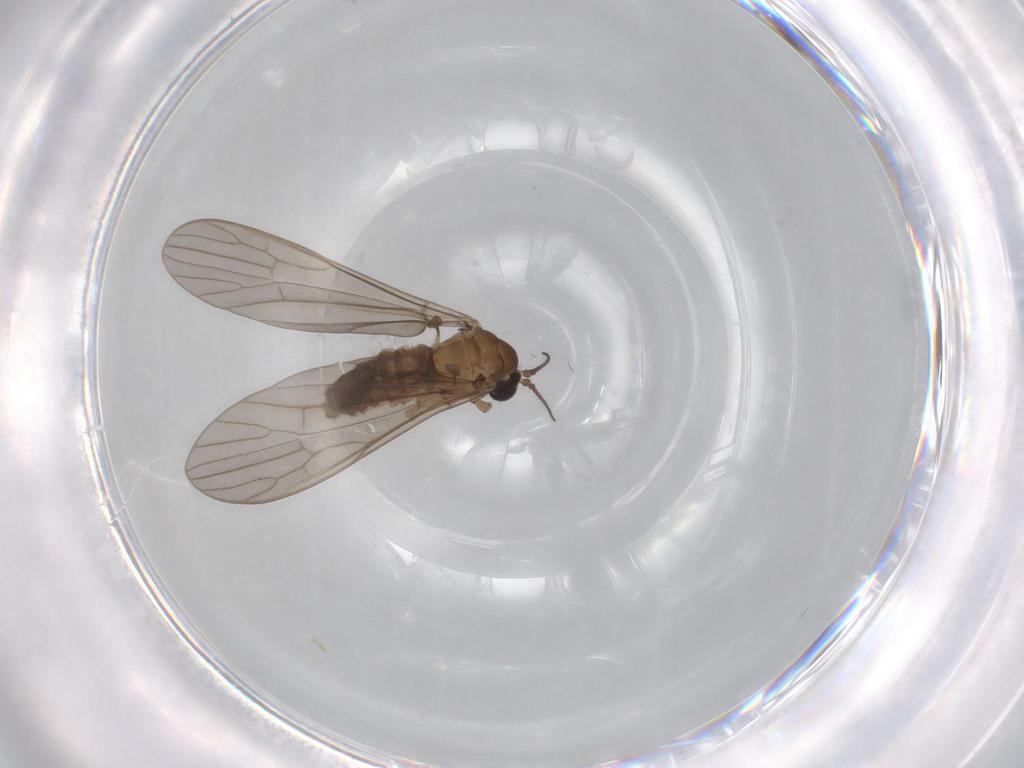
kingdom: Animalia
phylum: Arthropoda
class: Insecta
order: Diptera
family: Limoniidae
